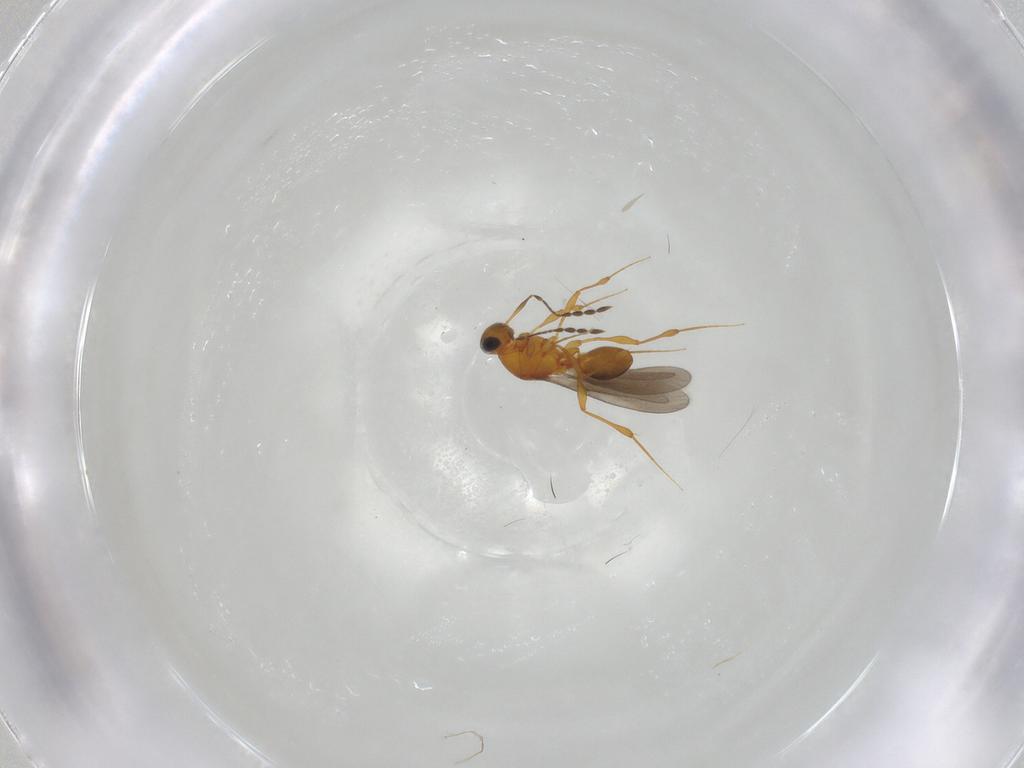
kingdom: Animalia
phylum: Arthropoda
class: Insecta
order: Hymenoptera
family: Platygastridae
